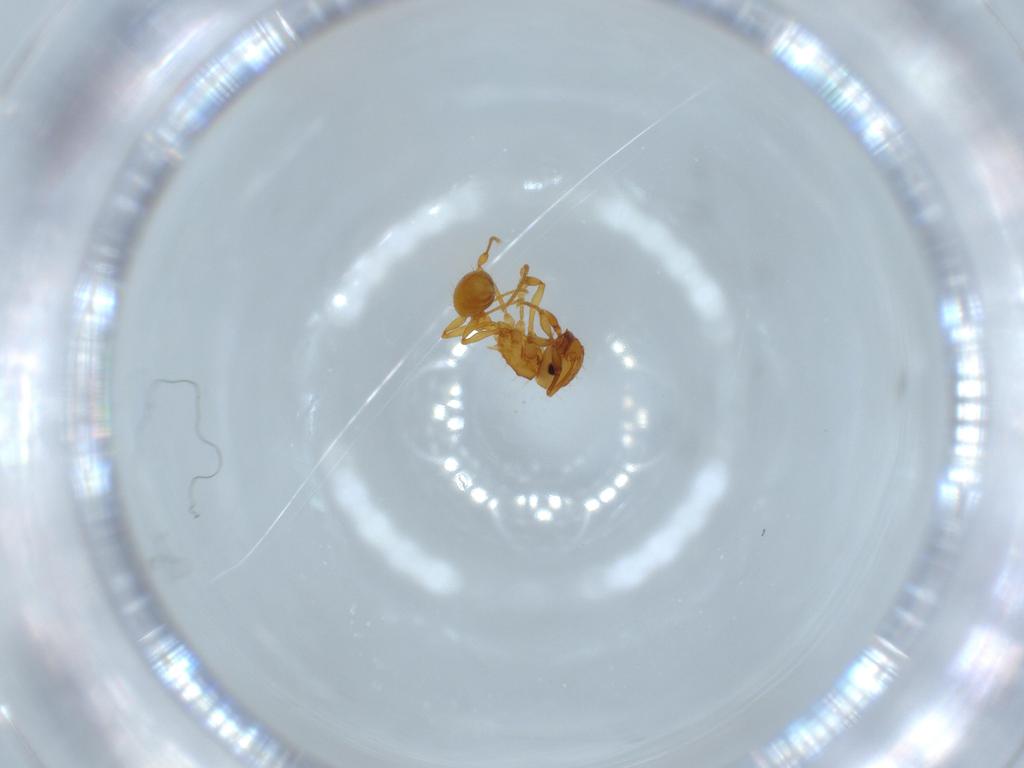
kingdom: Animalia
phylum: Arthropoda
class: Insecta
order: Hymenoptera
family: Formicidae
